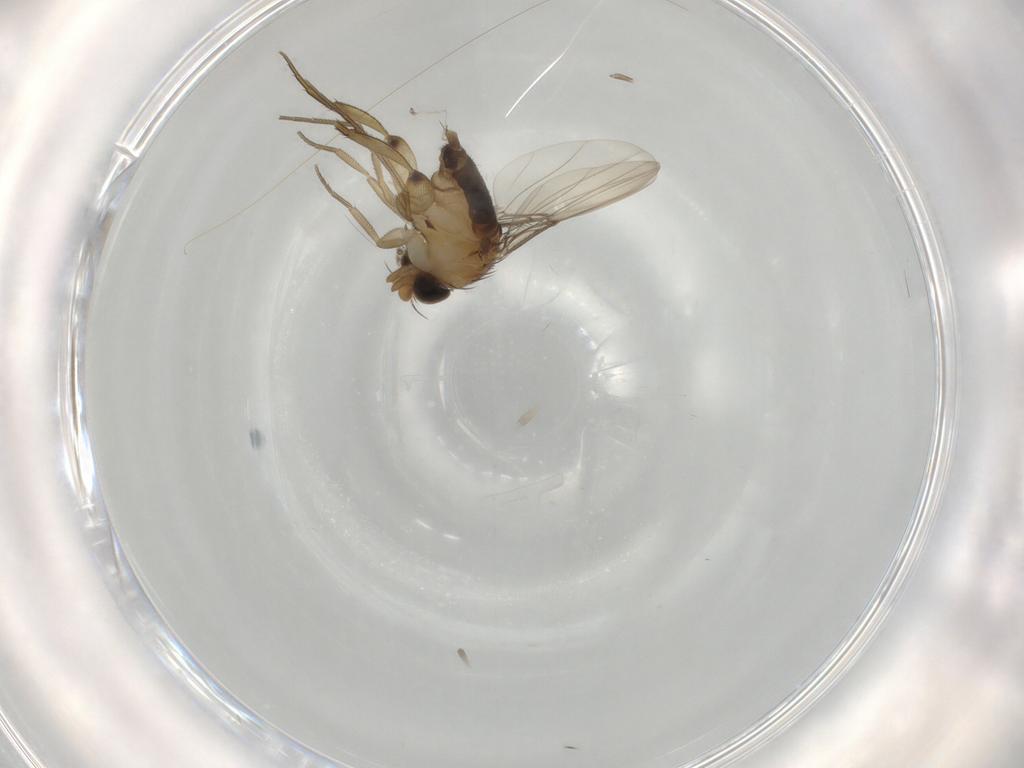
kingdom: Animalia
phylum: Arthropoda
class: Insecta
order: Diptera
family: Phoridae
